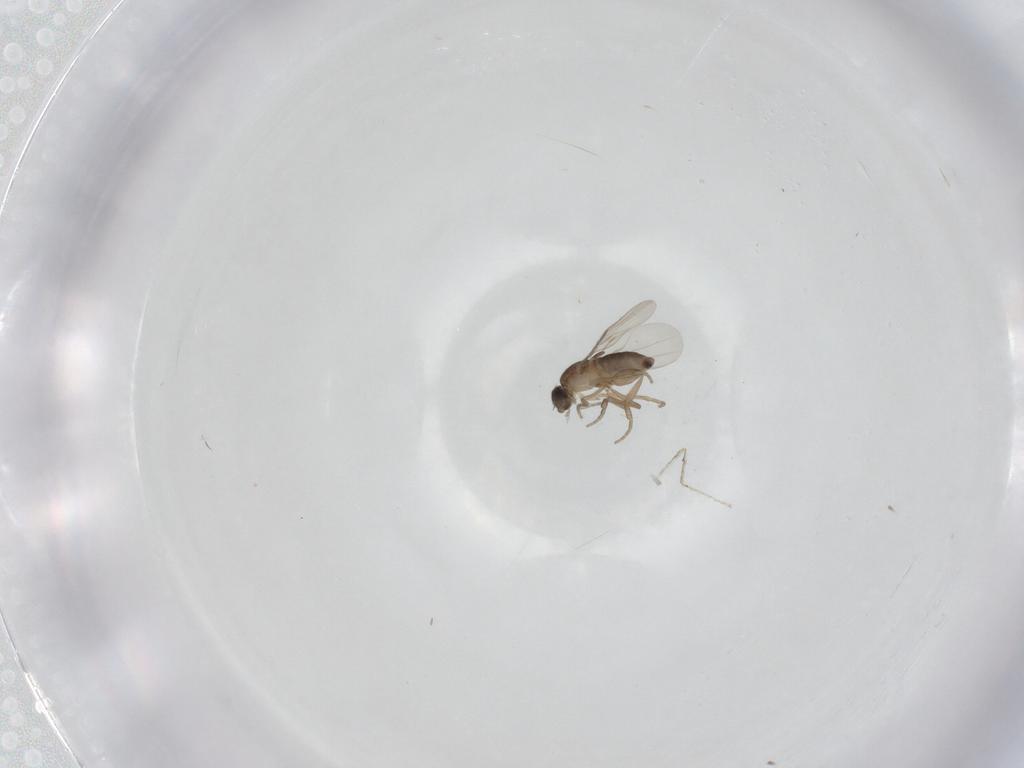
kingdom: Animalia
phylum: Arthropoda
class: Insecta
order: Diptera
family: Phoridae
